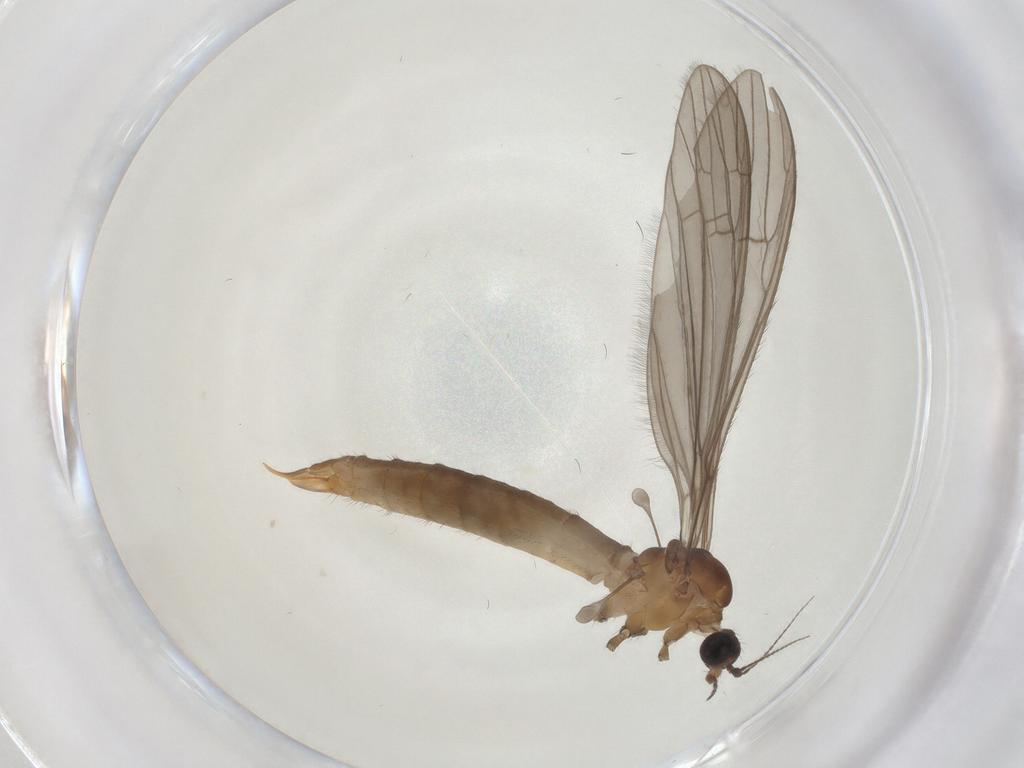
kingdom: Animalia
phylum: Arthropoda
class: Insecta
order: Diptera
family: Limoniidae
